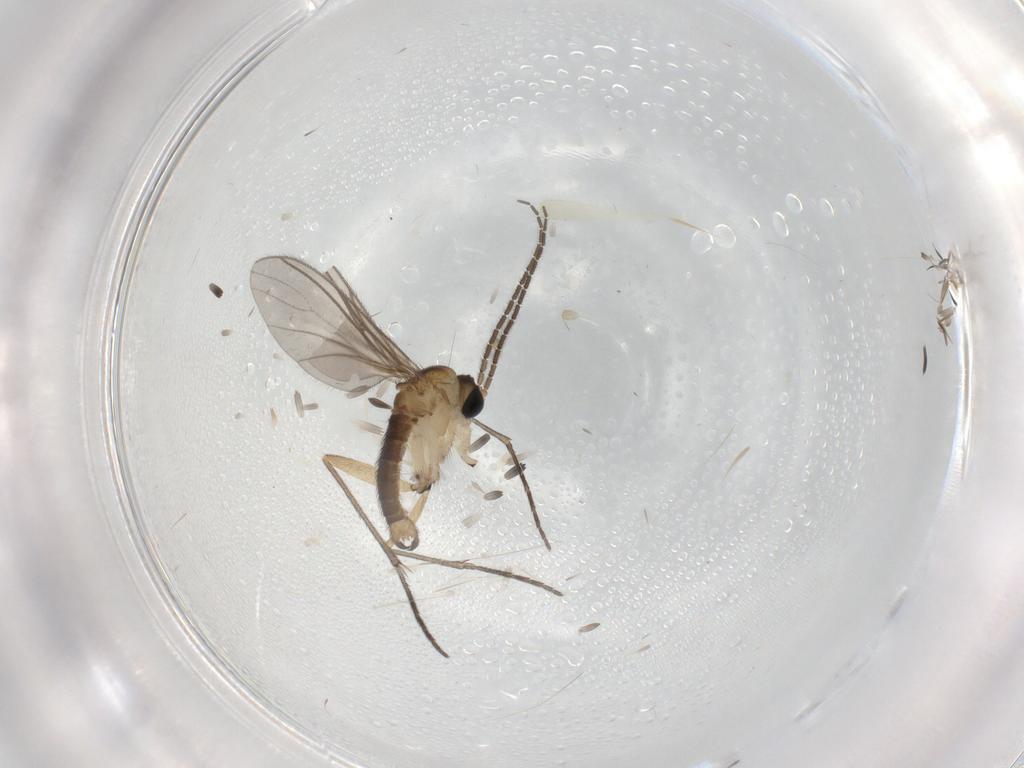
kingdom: Animalia
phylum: Arthropoda
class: Insecta
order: Diptera
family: Sciaridae
